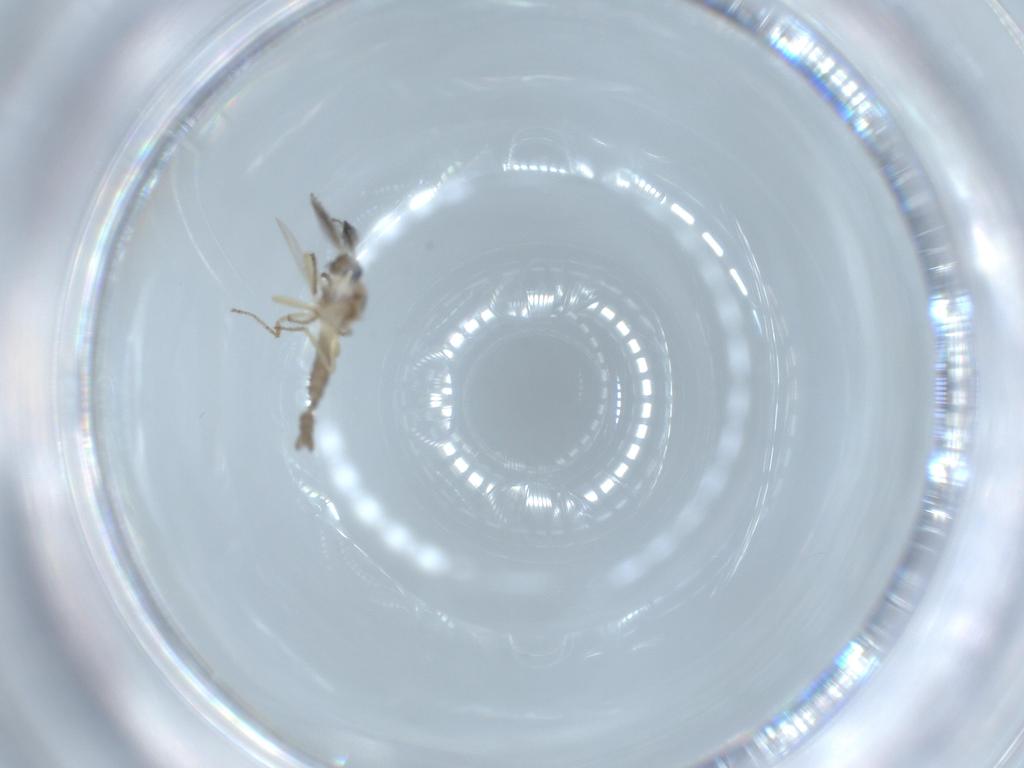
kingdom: Animalia
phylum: Arthropoda
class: Insecta
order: Diptera
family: Ceratopogonidae
